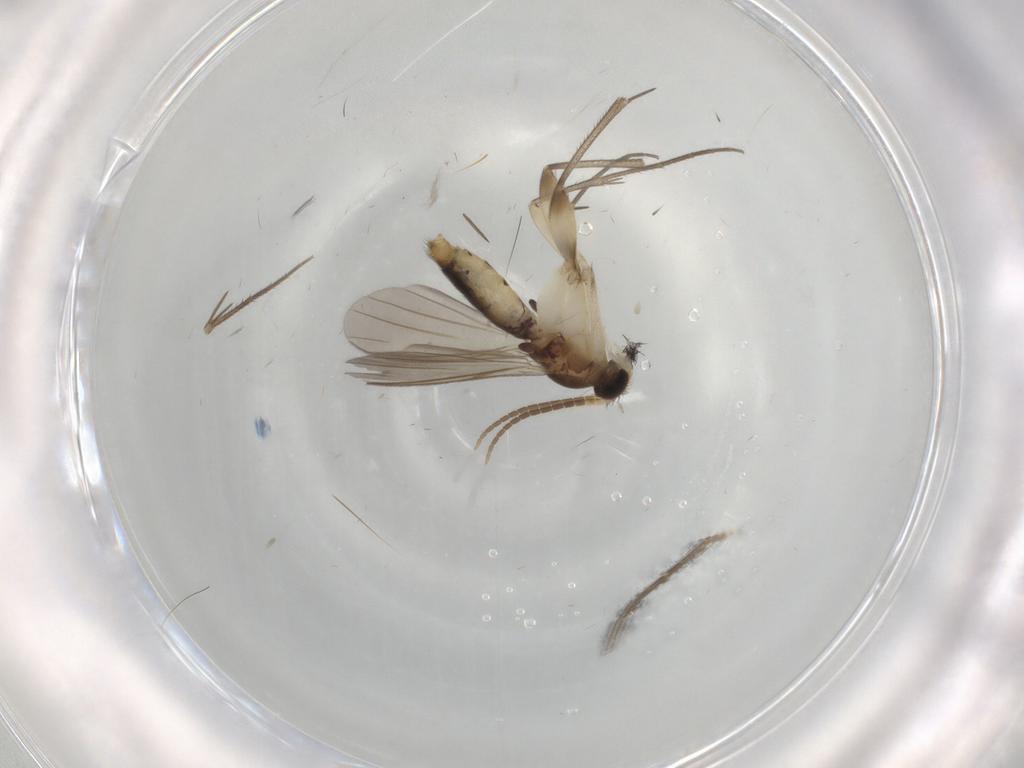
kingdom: Animalia
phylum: Arthropoda
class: Insecta
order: Diptera
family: Mycetophilidae
